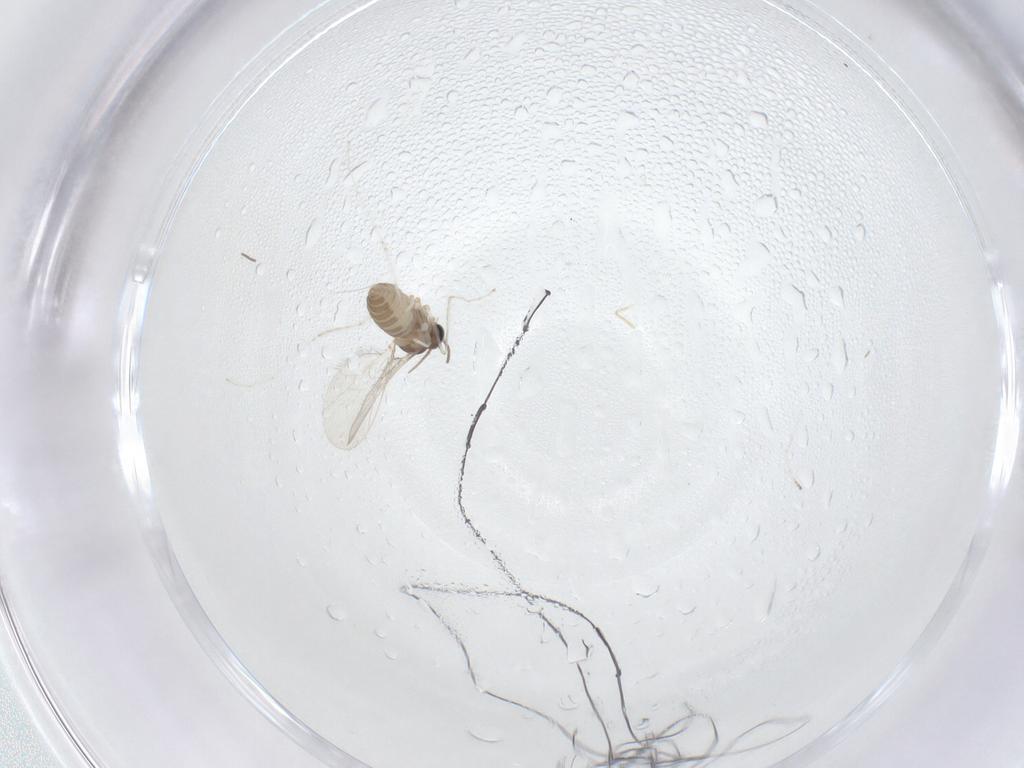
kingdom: Animalia
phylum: Arthropoda
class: Insecta
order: Diptera
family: Cecidomyiidae
